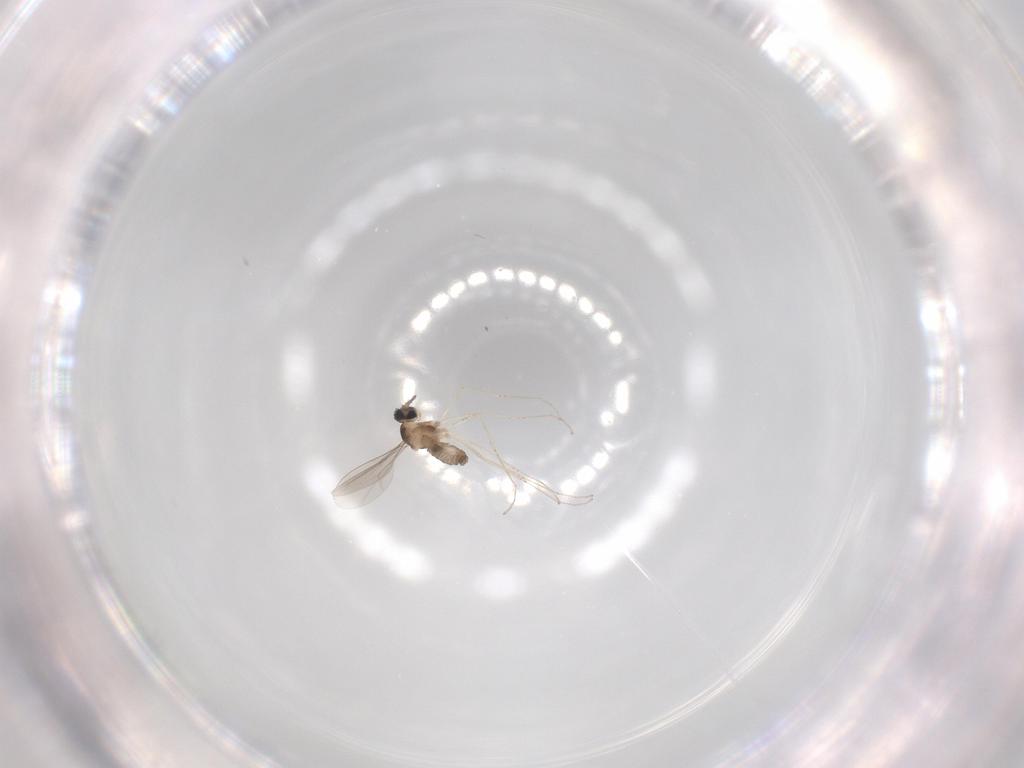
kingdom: Animalia
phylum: Arthropoda
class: Insecta
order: Diptera
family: Cecidomyiidae
